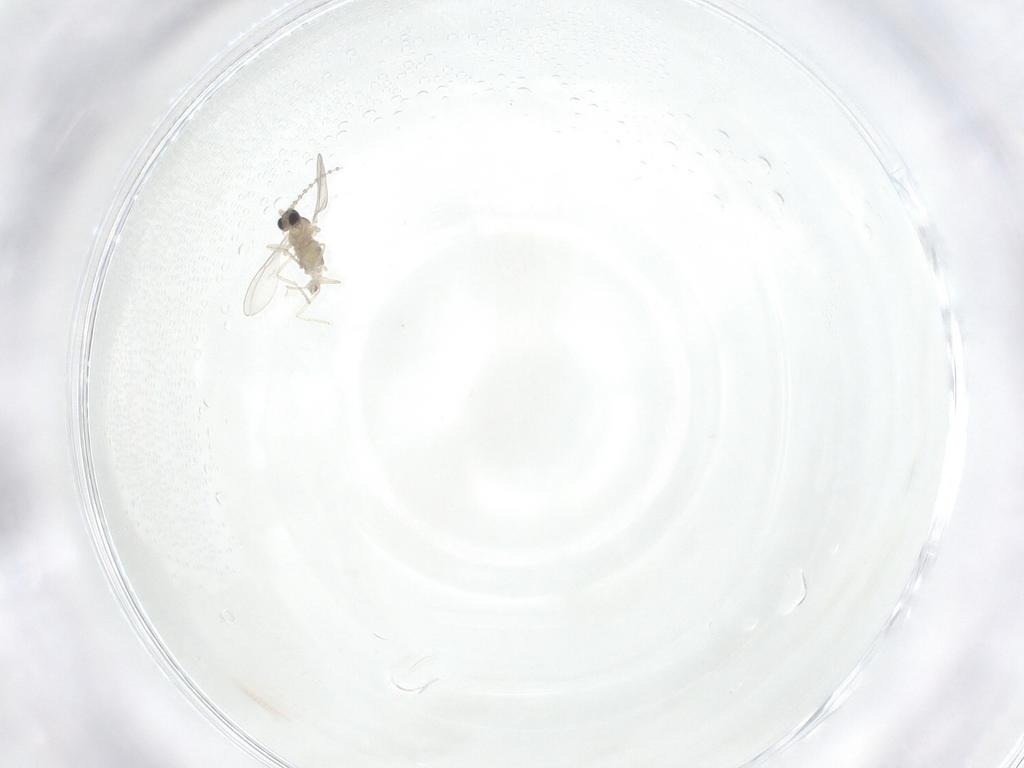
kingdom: Animalia
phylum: Arthropoda
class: Insecta
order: Diptera
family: Cecidomyiidae
